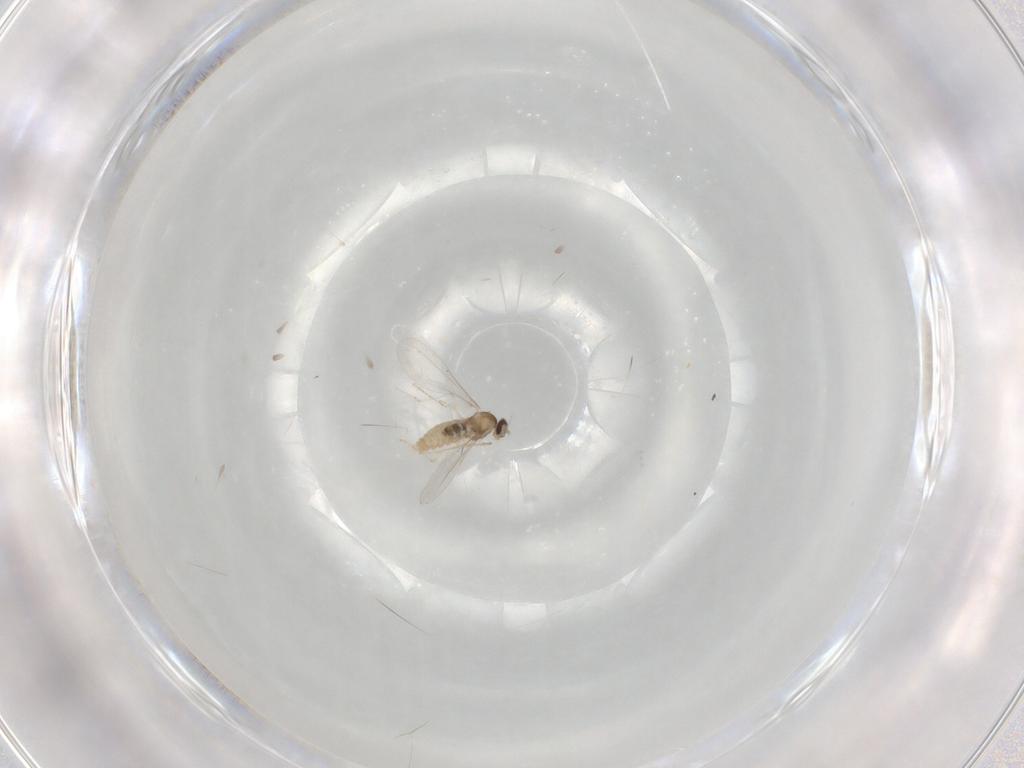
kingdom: Animalia
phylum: Arthropoda
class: Insecta
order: Diptera
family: Cecidomyiidae
